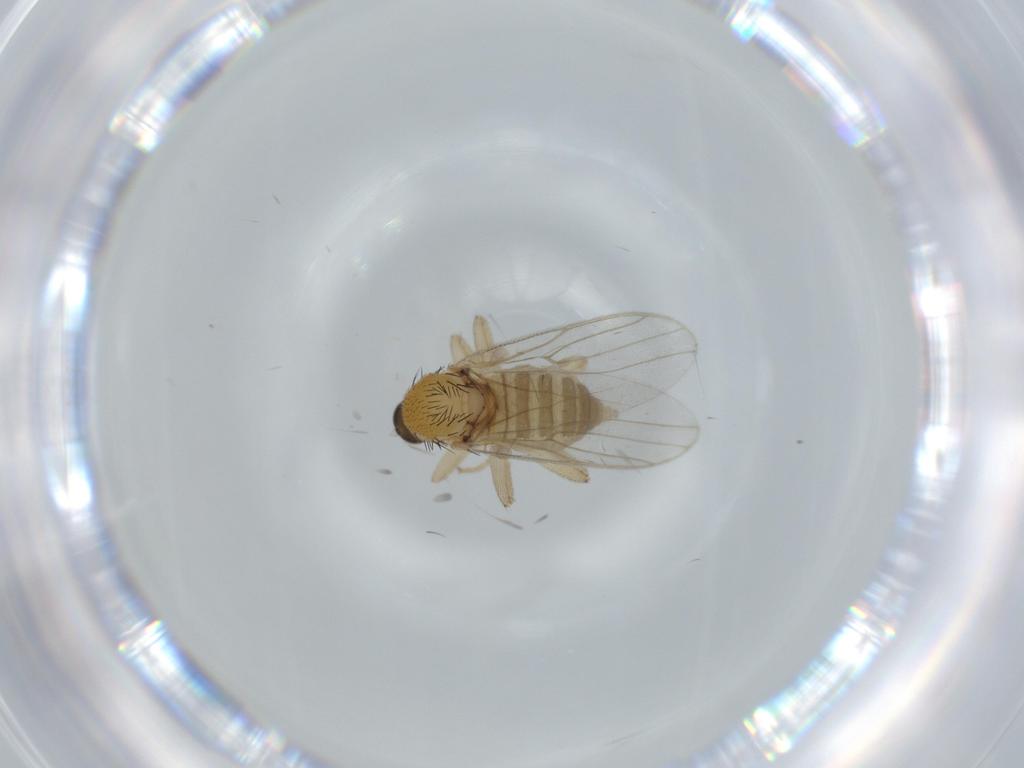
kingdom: Animalia
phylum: Arthropoda
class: Insecta
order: Diptera
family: Hybotidae
